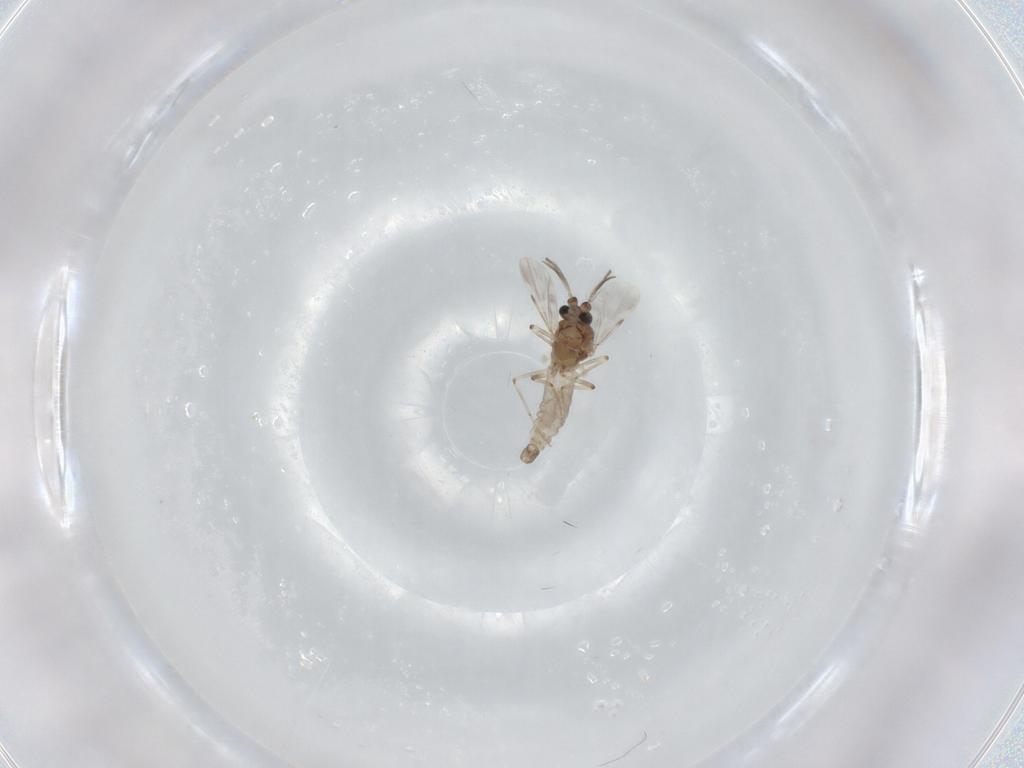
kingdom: Animalia
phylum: Arthropoda
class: Insecta
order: Diptera
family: Ceratopogonidae
